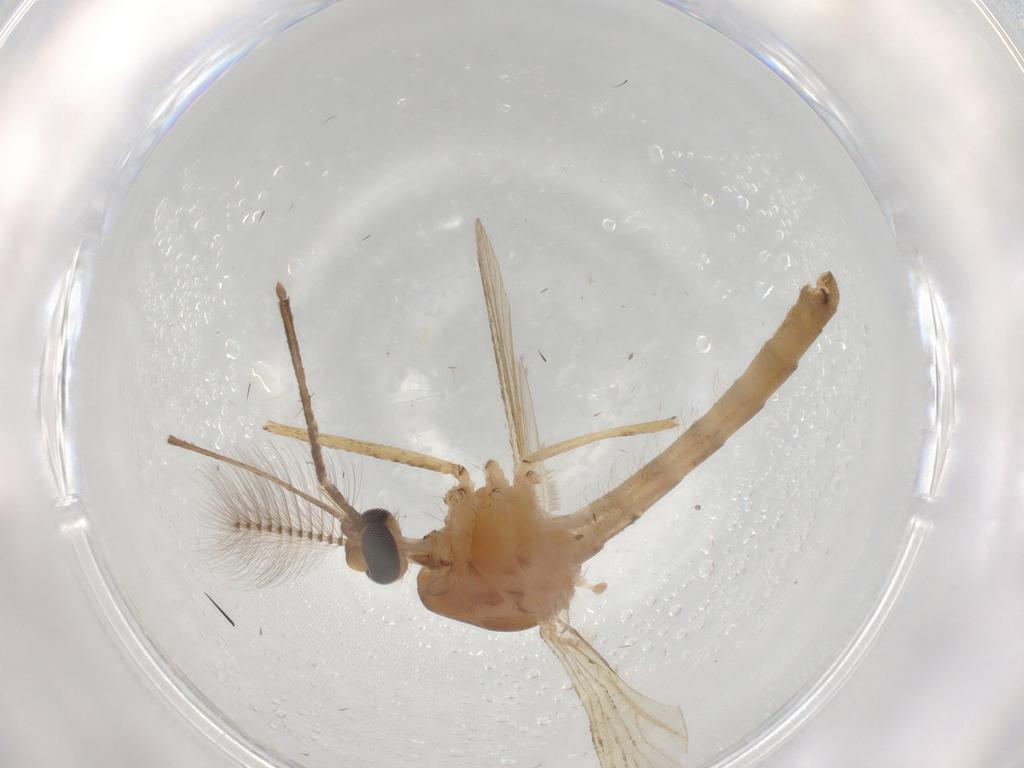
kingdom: Animalia
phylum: Arthropoda
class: Insecta
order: Diptera
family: Culicidae
